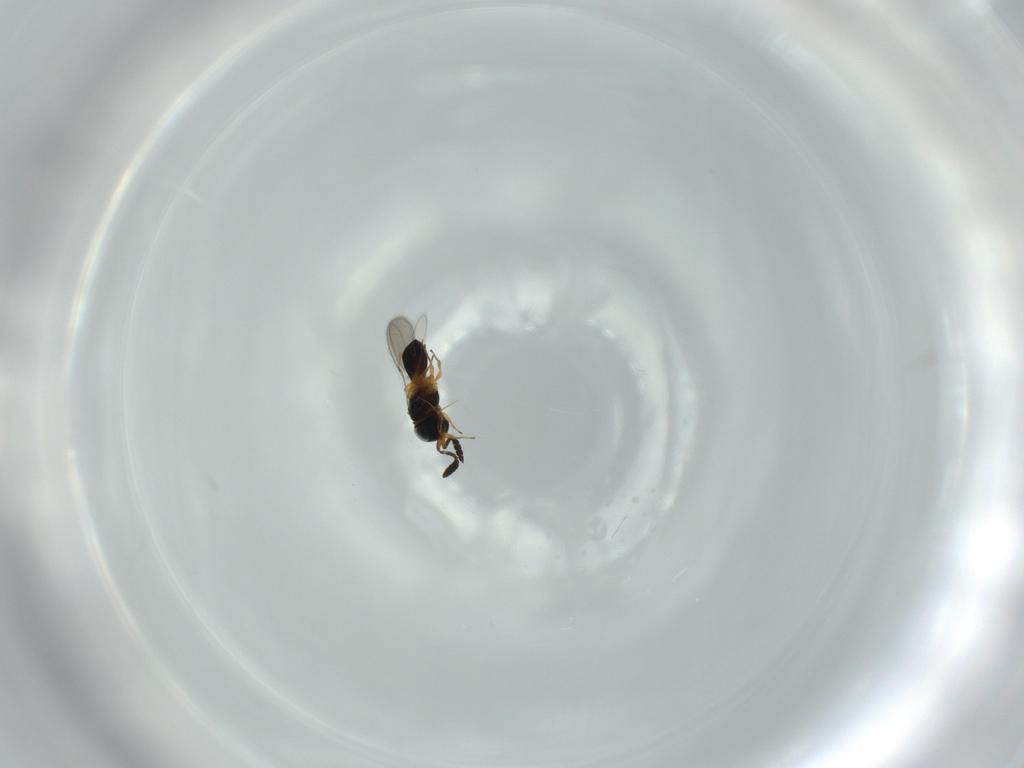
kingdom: Animalia
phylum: Arthropoda
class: Insecta
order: Hymenoptera
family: Scelionidae
